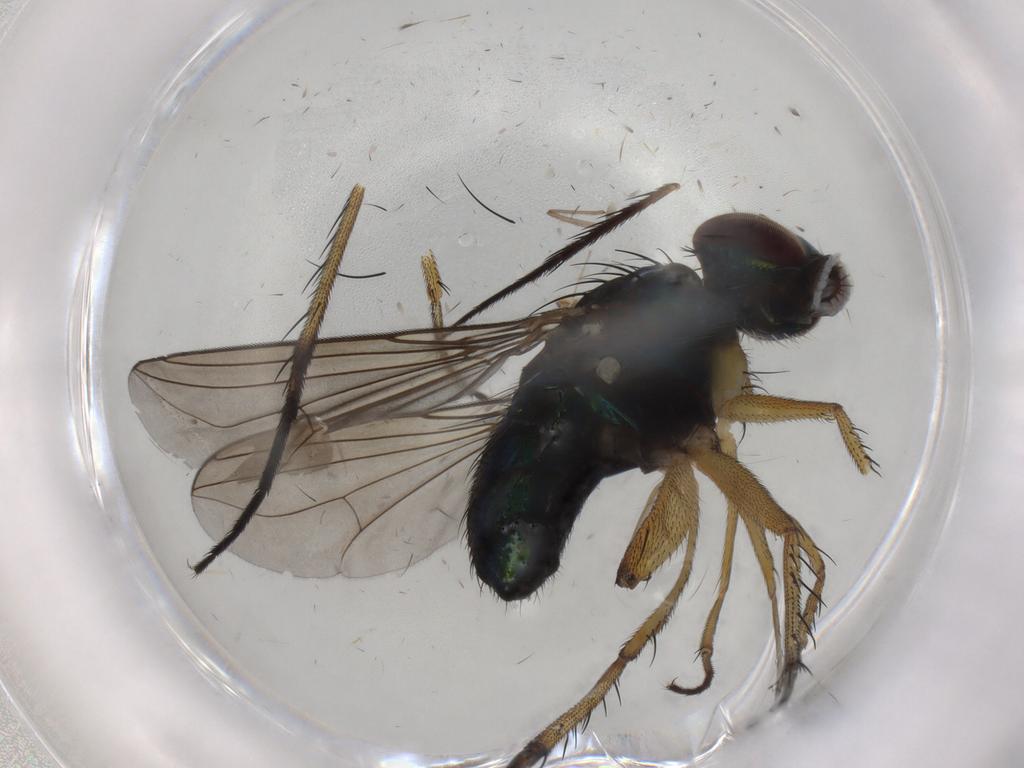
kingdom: Animalia
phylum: Arthropoda
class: Insecta
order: Diptera
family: Dolichopodidae
